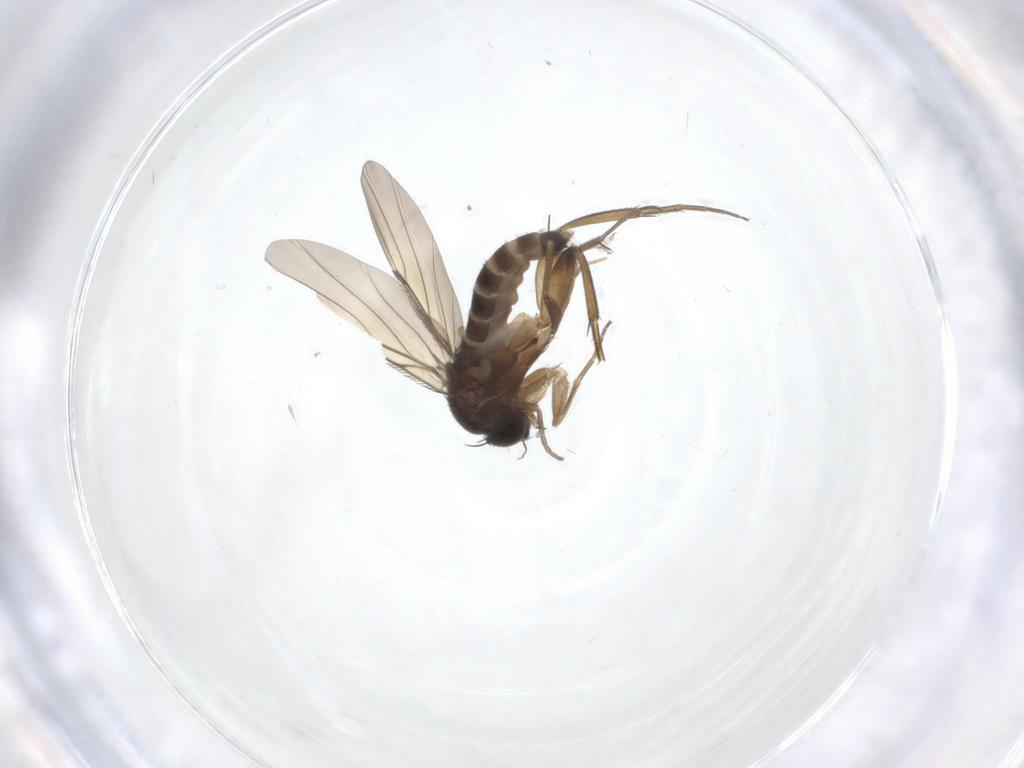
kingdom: Animalia
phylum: Arthropoda
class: Insecta
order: Diptera
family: Phoridae
